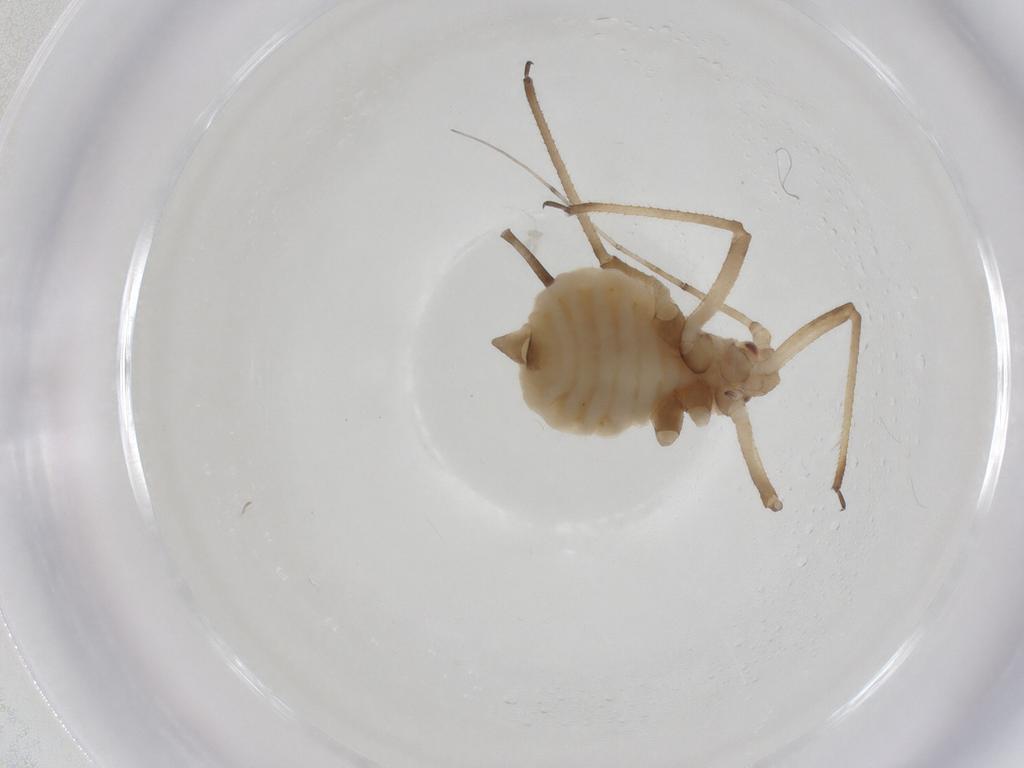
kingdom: Animalia
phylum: Arthropoda
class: Insecta
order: Hemiptera
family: Aphididae
